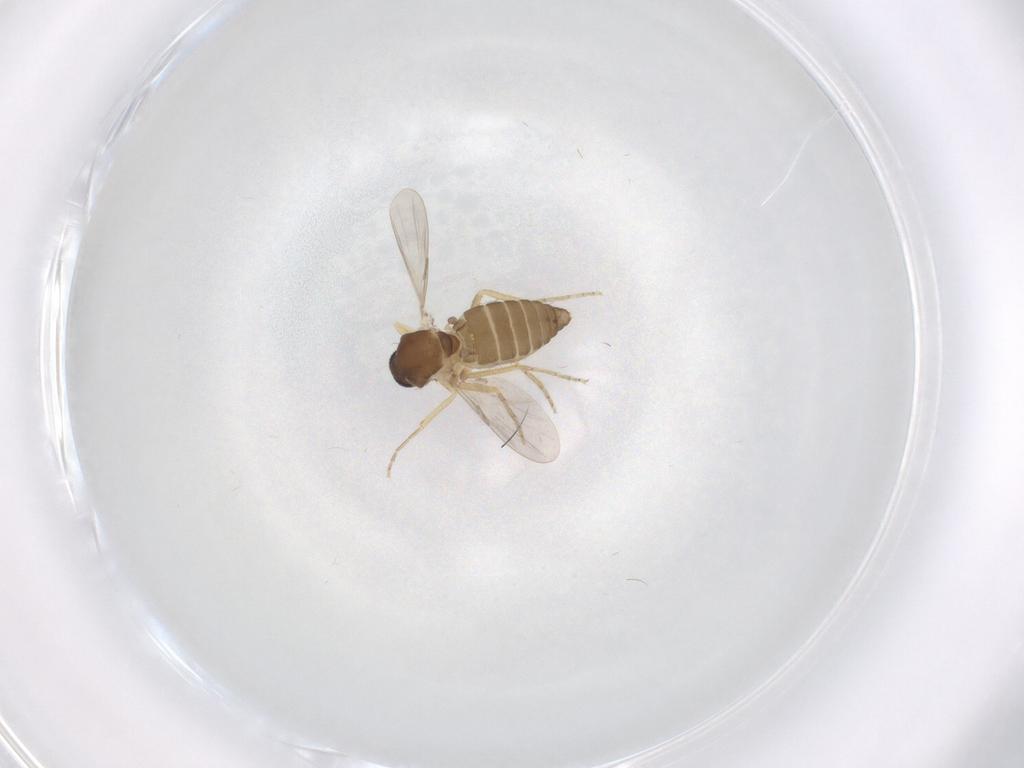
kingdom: Animalia
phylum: Arthropoda
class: Insecta
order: Diptera
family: Ceratopogonidae
